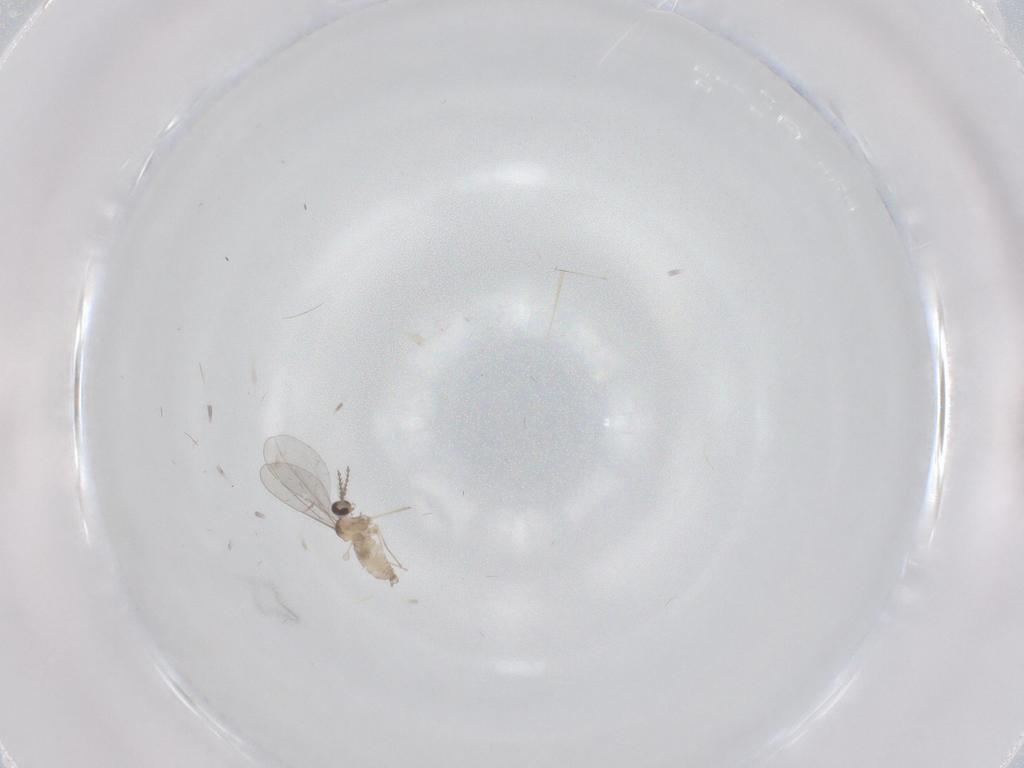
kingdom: Animalia
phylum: Arthropoda
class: Insecta
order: Diptera
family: Cecidomyiidae
